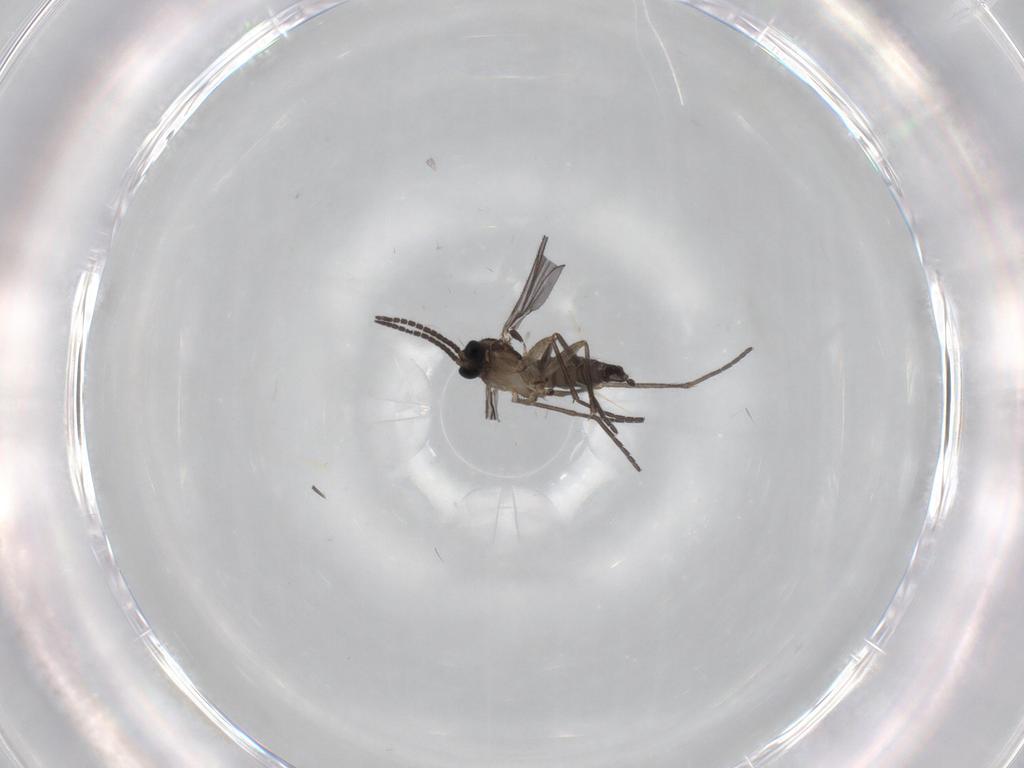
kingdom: Animalia
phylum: Arthropoda
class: Insecta
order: Diptera
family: Sciaridae
